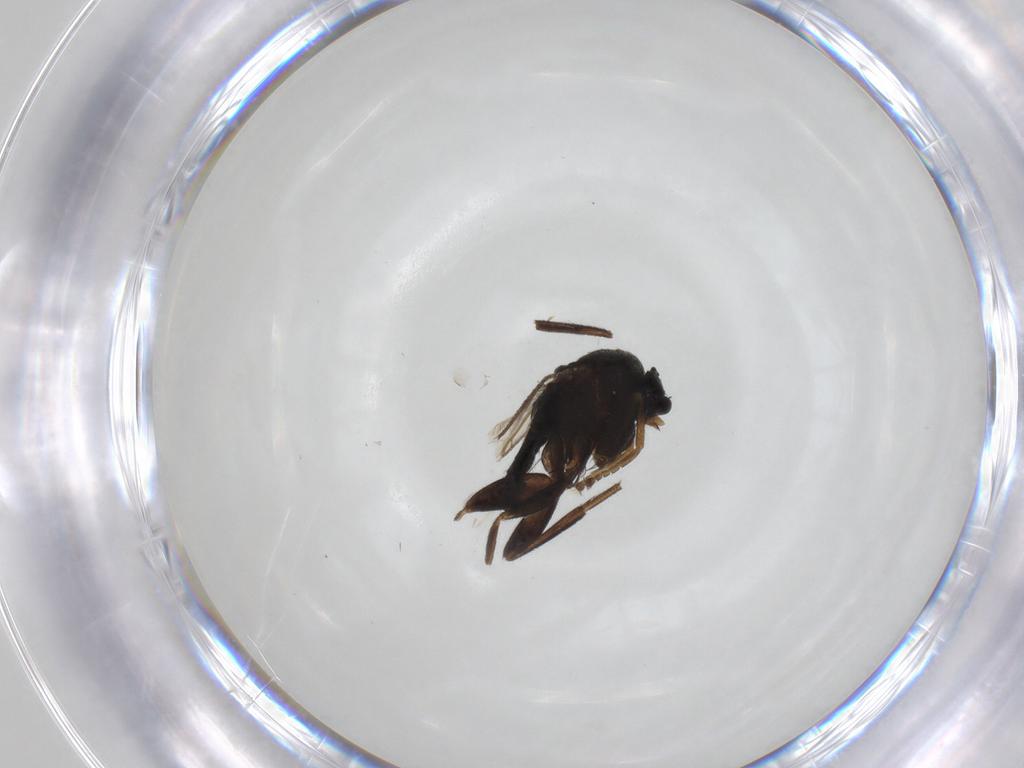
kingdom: Animalia
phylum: Arthropoda
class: Insecta
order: Diptera
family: Phoridae
